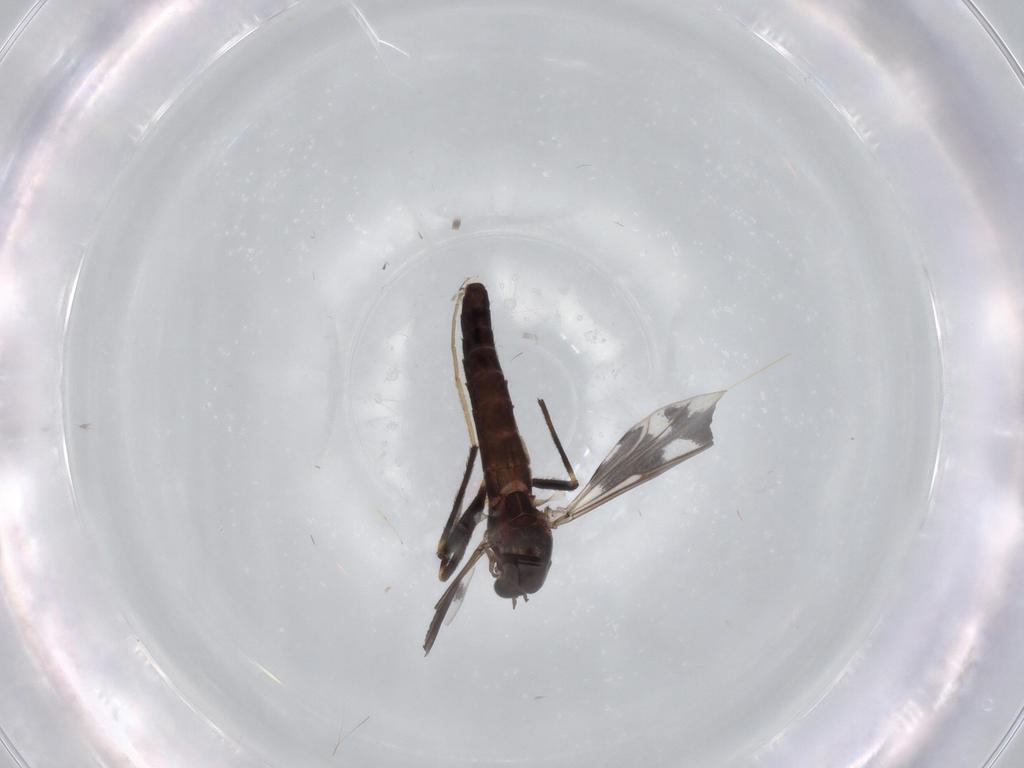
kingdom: Animalia
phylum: Arthropoda
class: Insecta
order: Diptera
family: Chironomidae
